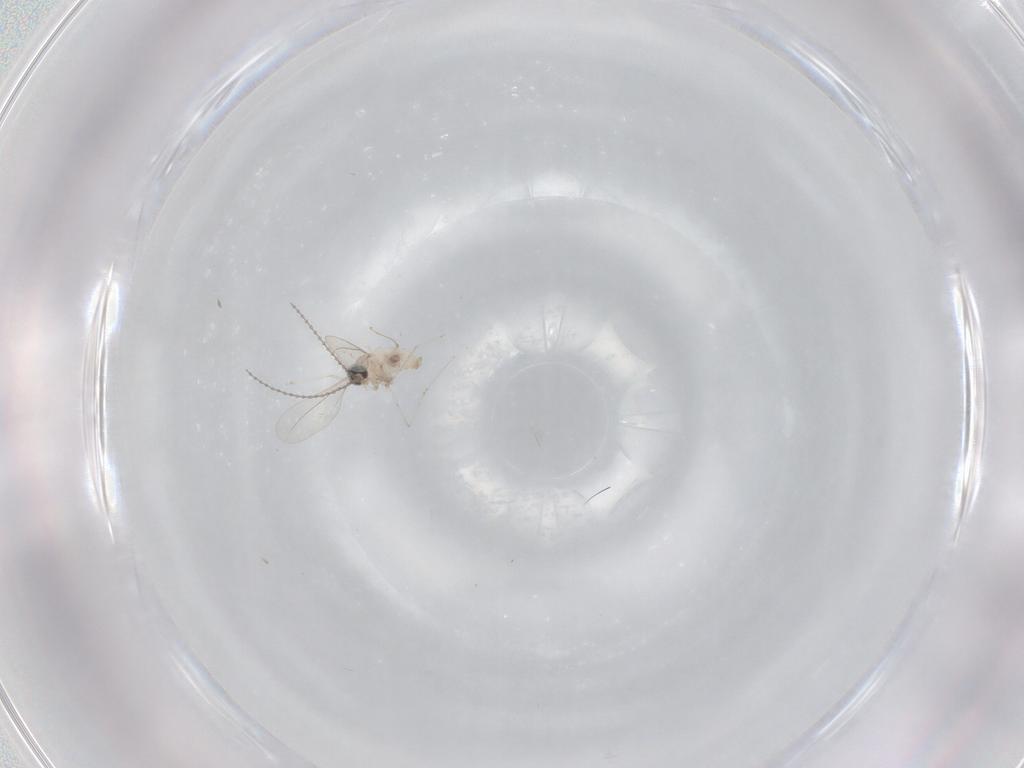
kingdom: Animalia
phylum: Arthropoda
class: Insecta
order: Diptera
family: Cecidomyiidae
